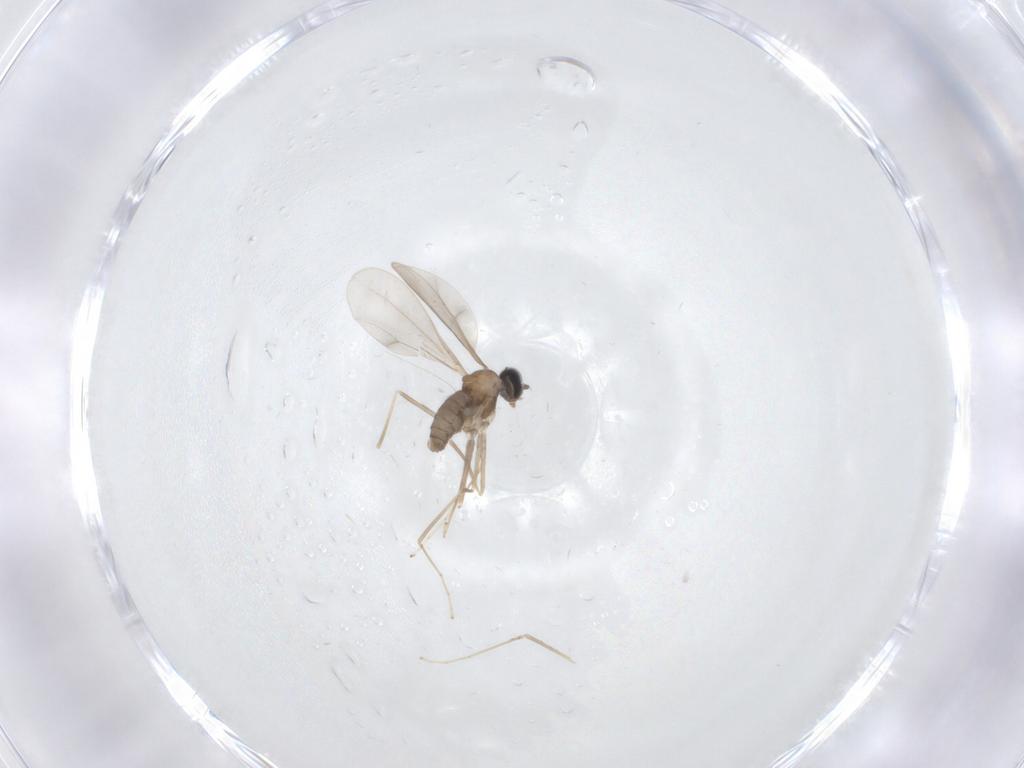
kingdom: Animalia
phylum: Arthropoda
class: Insecta
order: Diptera
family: Cecidomyiidae
